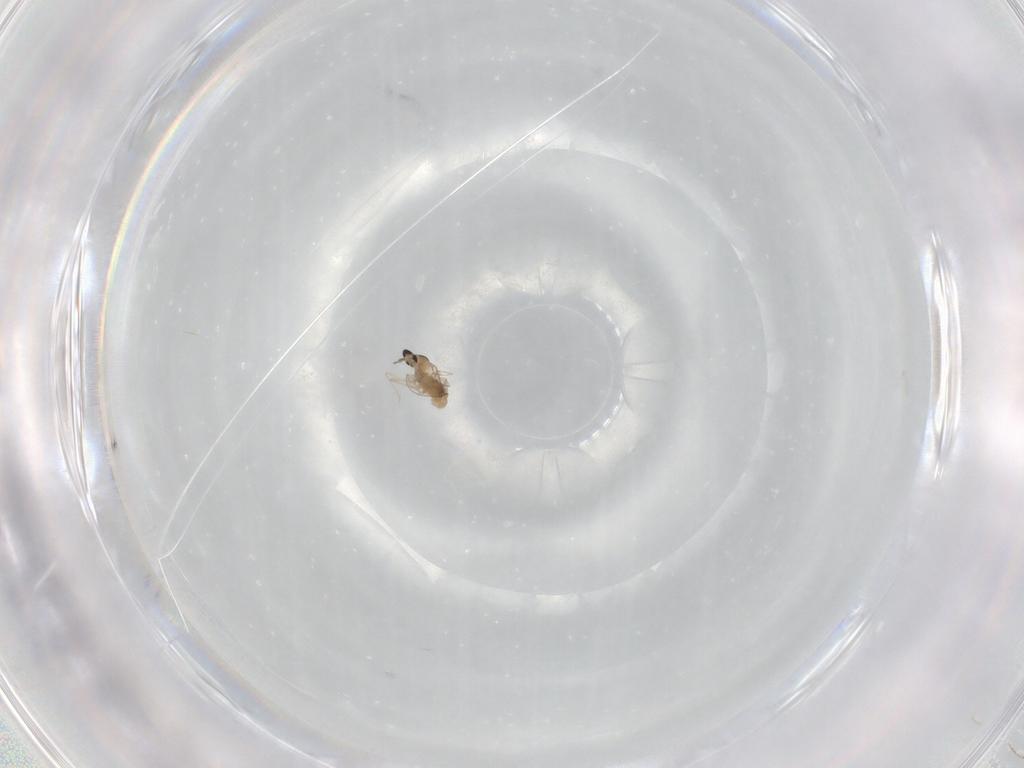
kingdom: Animalia
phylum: Arthropoda
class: Insecta
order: Diptera
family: Cecidomyiidae
